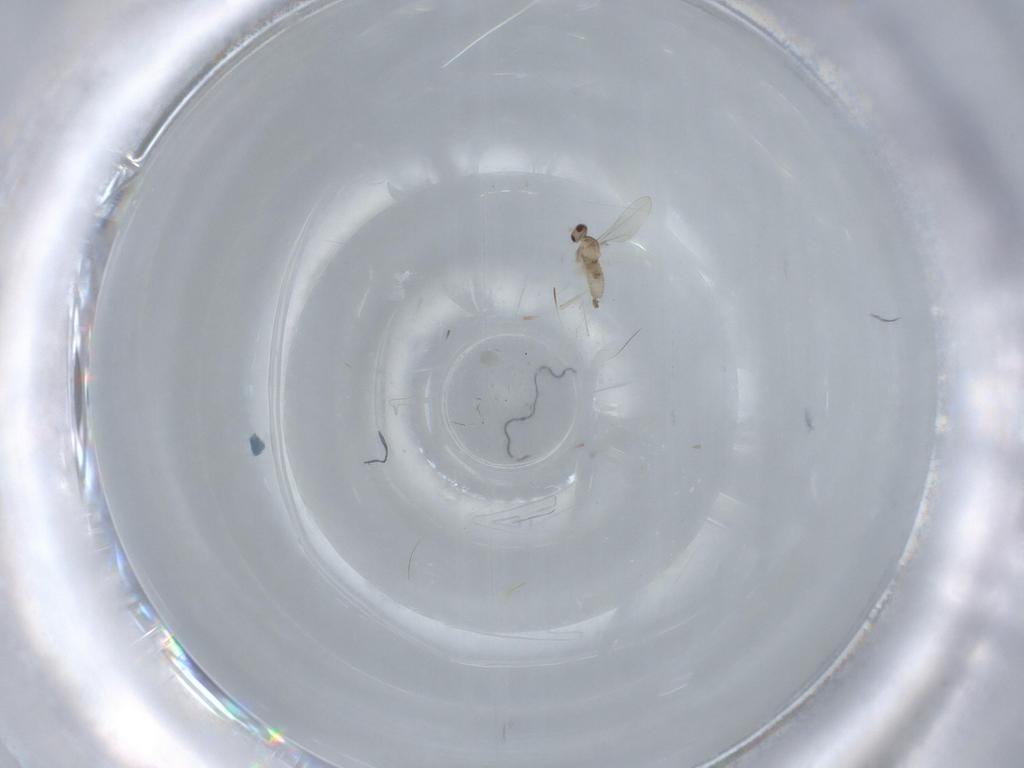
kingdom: Animalia
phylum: Arthropoda
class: Insecta
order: Diptera
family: Cecidomyiidae
